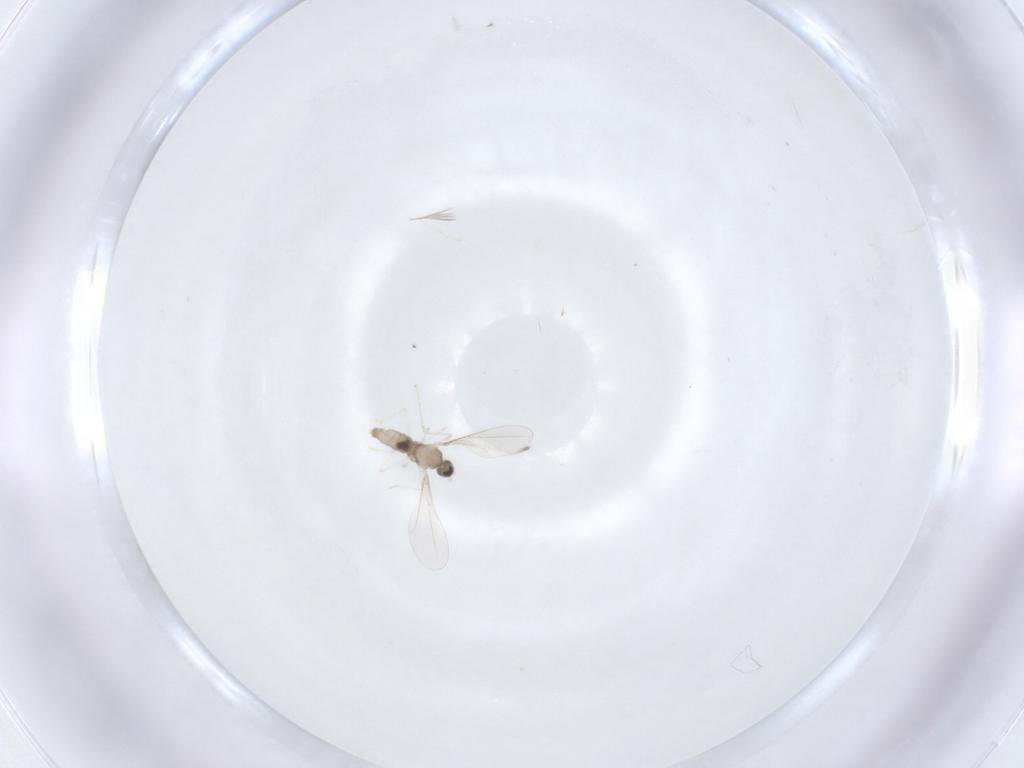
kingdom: Animalia
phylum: Arthropoda
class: Insecta
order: Diptera
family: Cecidomyiidae
